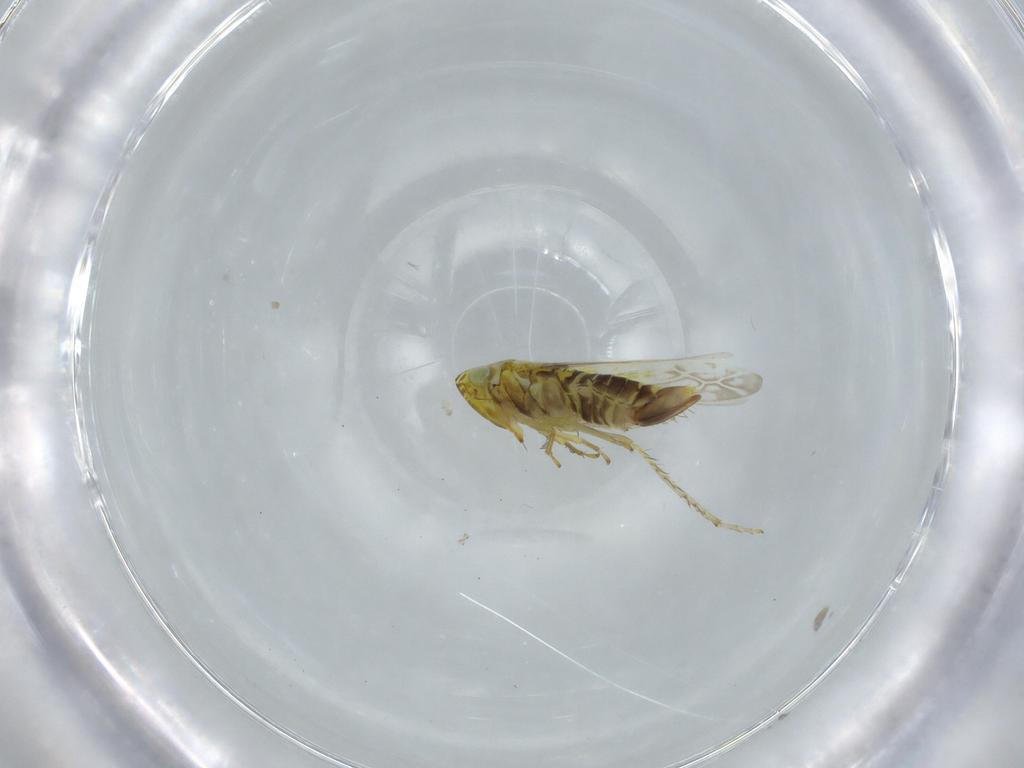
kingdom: Animalia
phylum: Arthropoda
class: Insecta
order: Hemiptera
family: Cicadellidae
